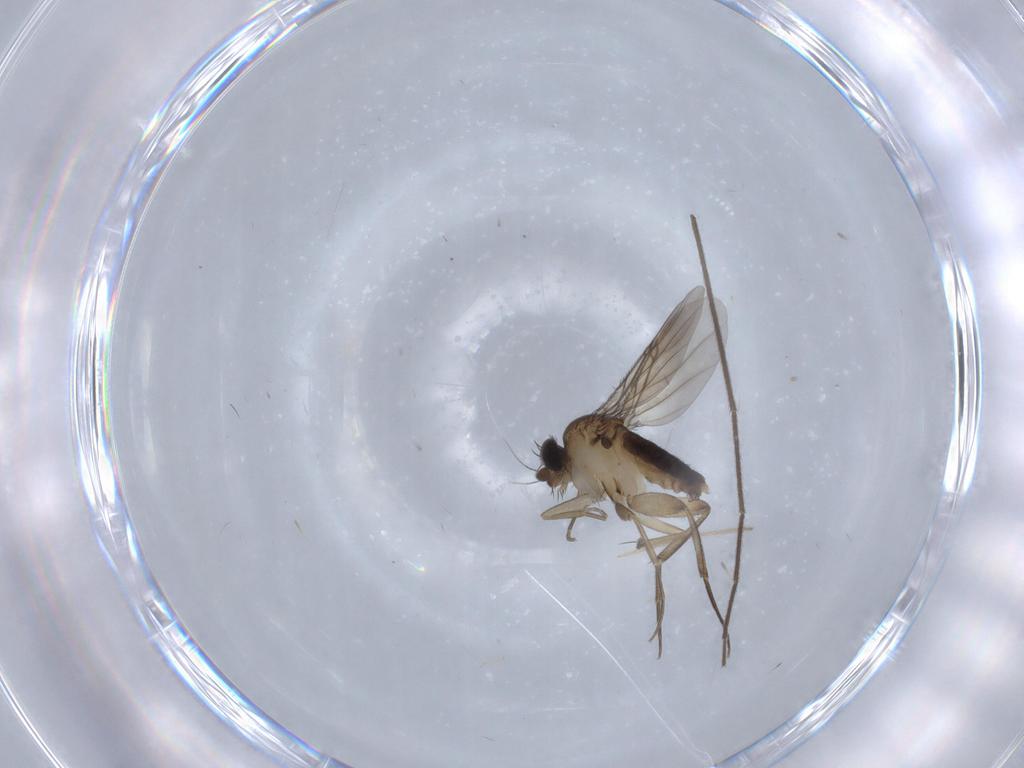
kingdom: Animalia
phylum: Arthropoda
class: Insecta
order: Diptera
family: Phoridae
